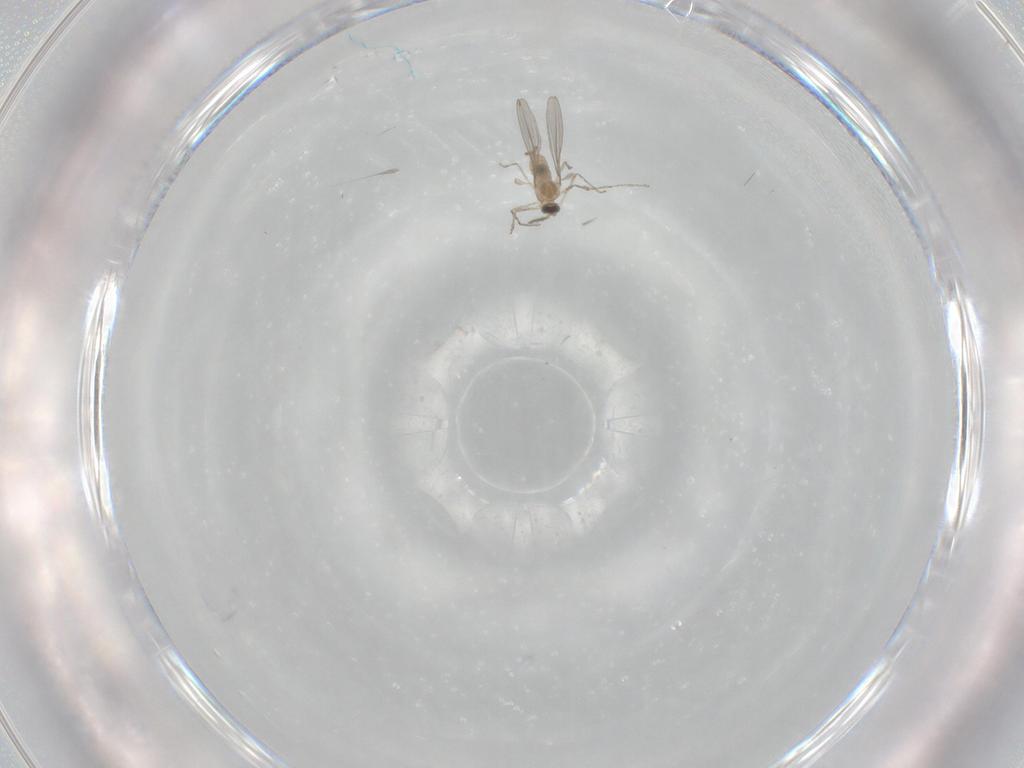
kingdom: Animalia
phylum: Arthropoda
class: Insecta
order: Diptera
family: Cecidomyiidae
